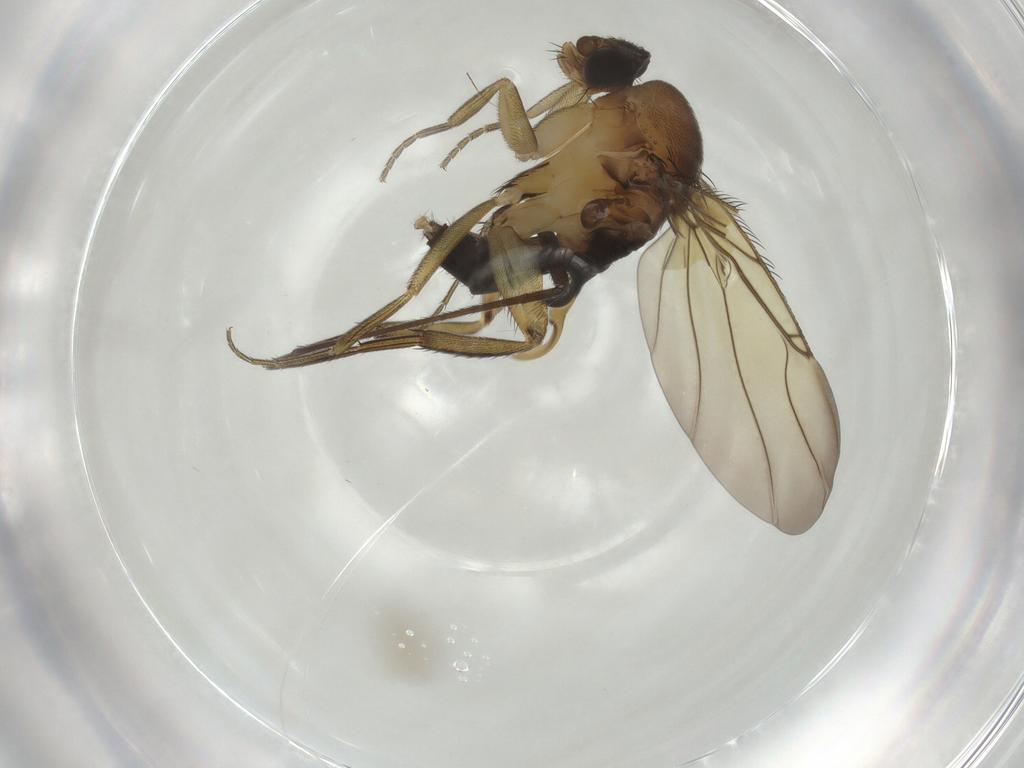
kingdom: Animalia
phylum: Arthropoda
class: Insecta
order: Diptera
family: Phoridae
